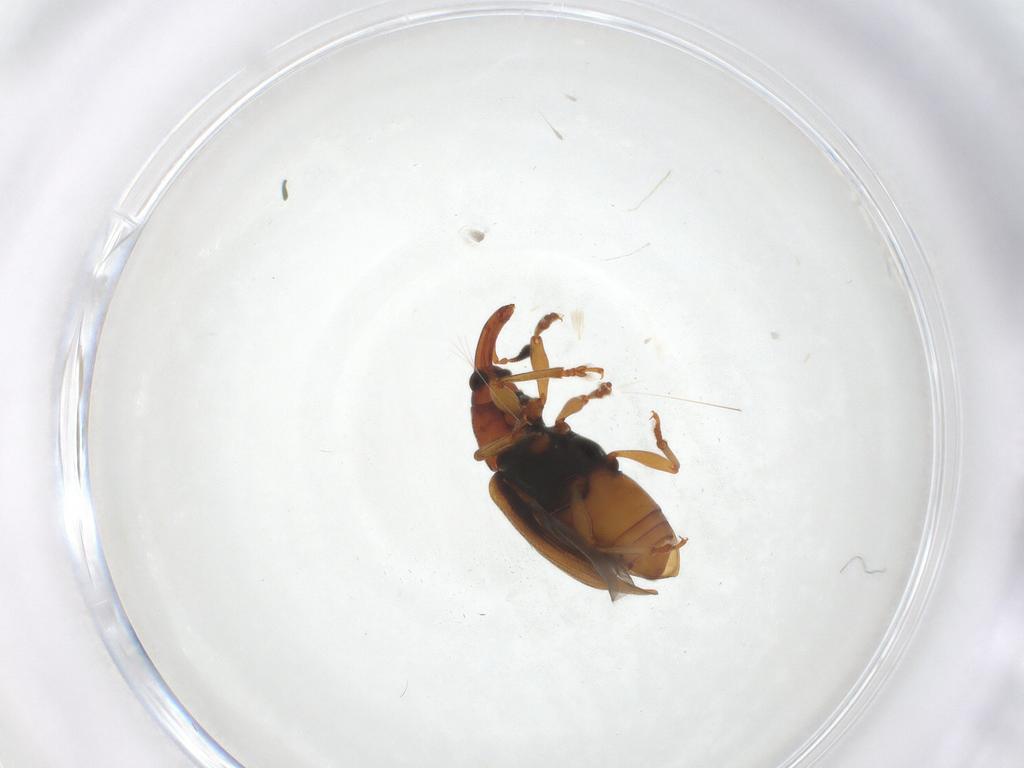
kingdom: Animalia
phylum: Arthropoda
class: Insecta
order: Coleoptera
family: Curculionidae
